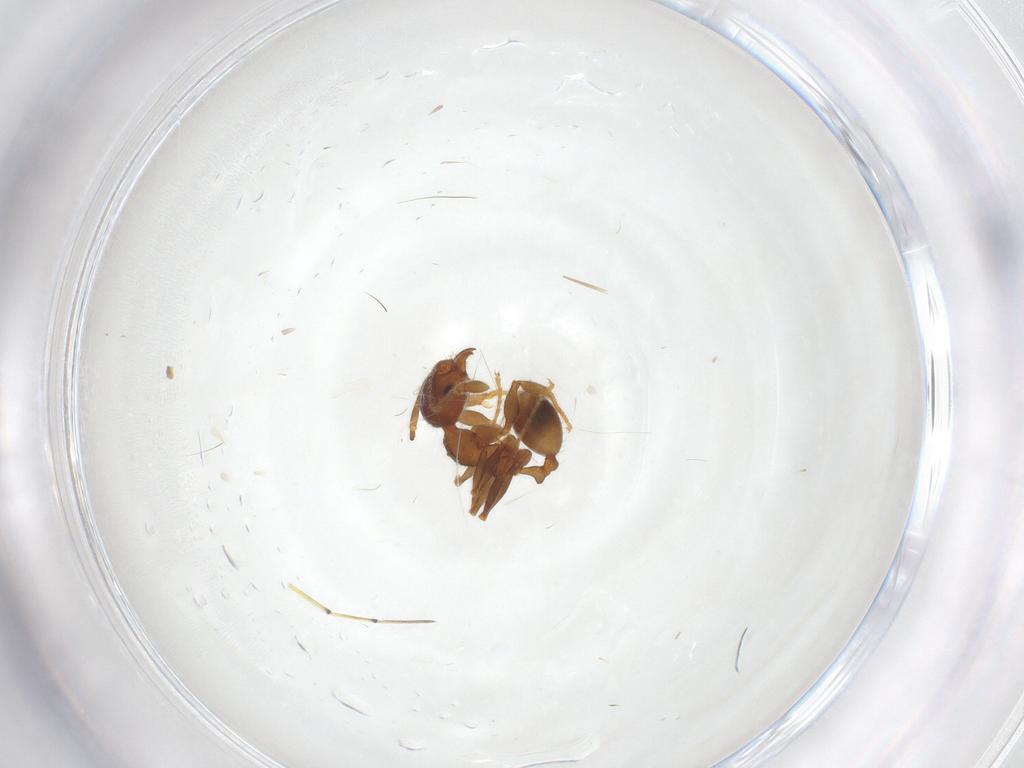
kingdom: Animalia
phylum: Arthropoda
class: Insecta
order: Hymenoptera
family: Formicidae
